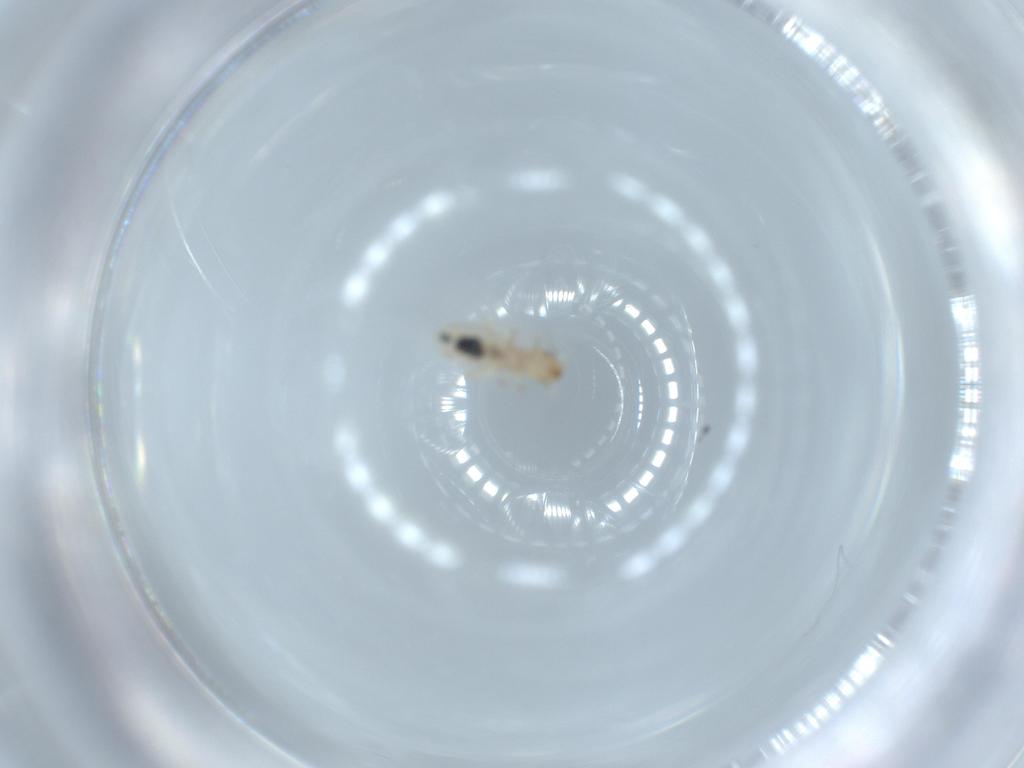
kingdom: Animalia
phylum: Arthropoda
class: Insecta
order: Psocodea
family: Liposcelididae
